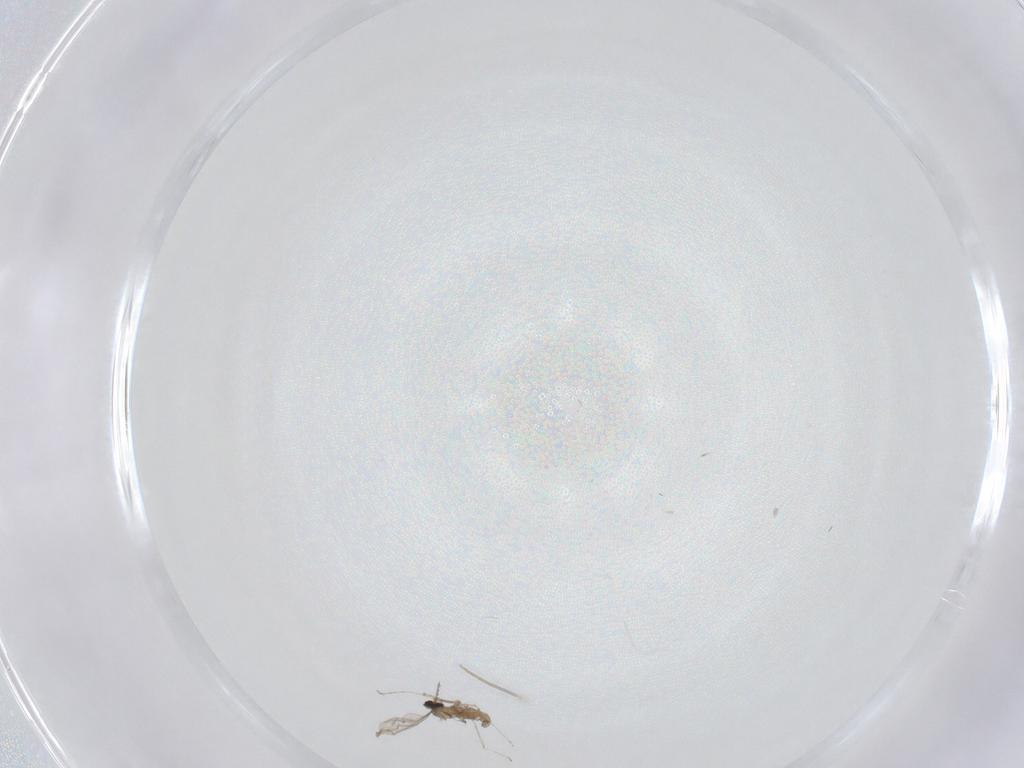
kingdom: Animalia
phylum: Arthropoda
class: Insecta
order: Diptera
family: Chironomidae
